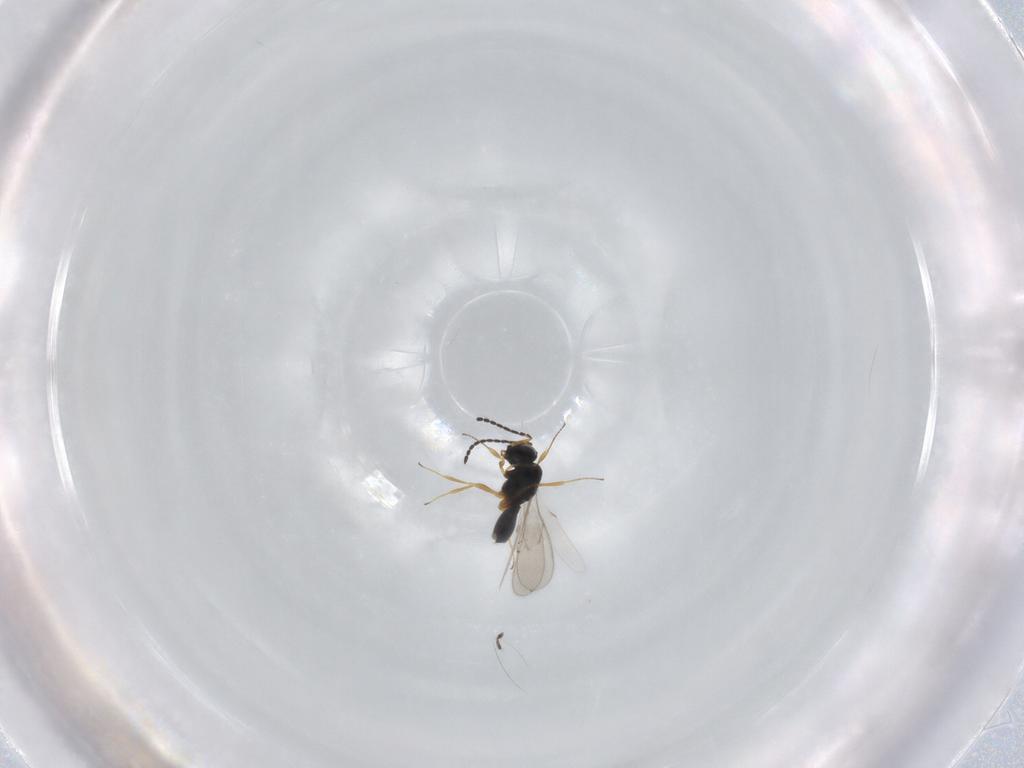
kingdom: Animalia
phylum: Arthropoda
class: Insecta
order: Hymenoptera
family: Scelionidae
